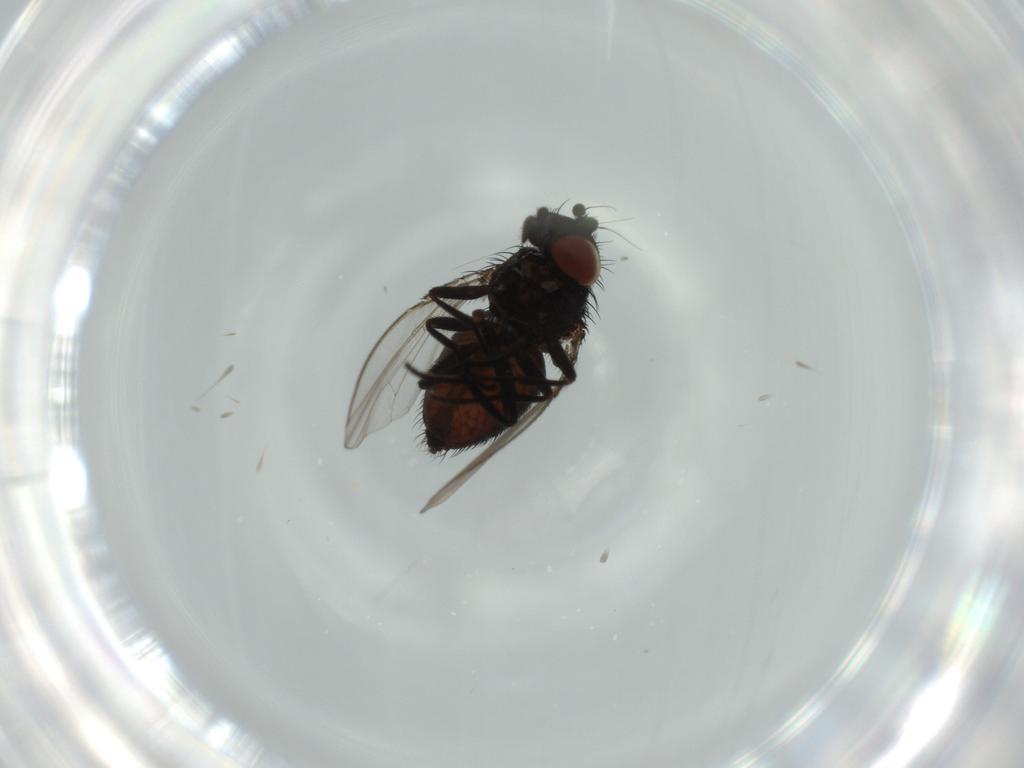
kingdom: Animalia
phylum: Arthropoda
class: Insecta
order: Diptera
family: Milichiidae
